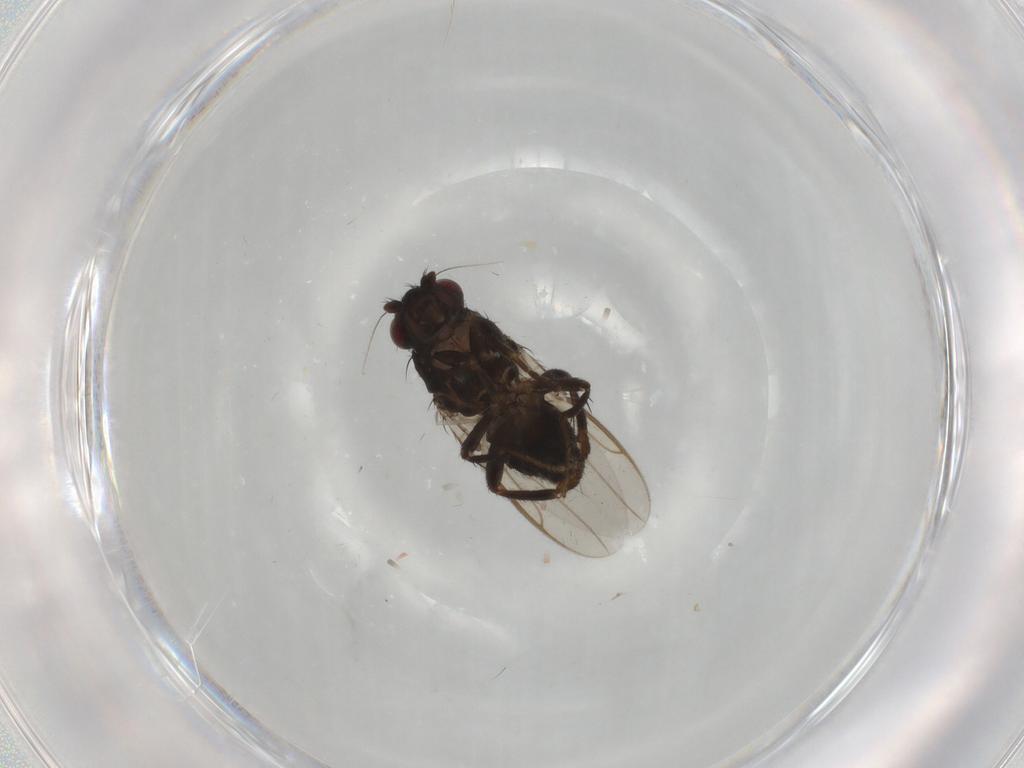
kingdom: Animalia
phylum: Arthropoda
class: Insecta
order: Diptera
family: Sphaeroceridae
